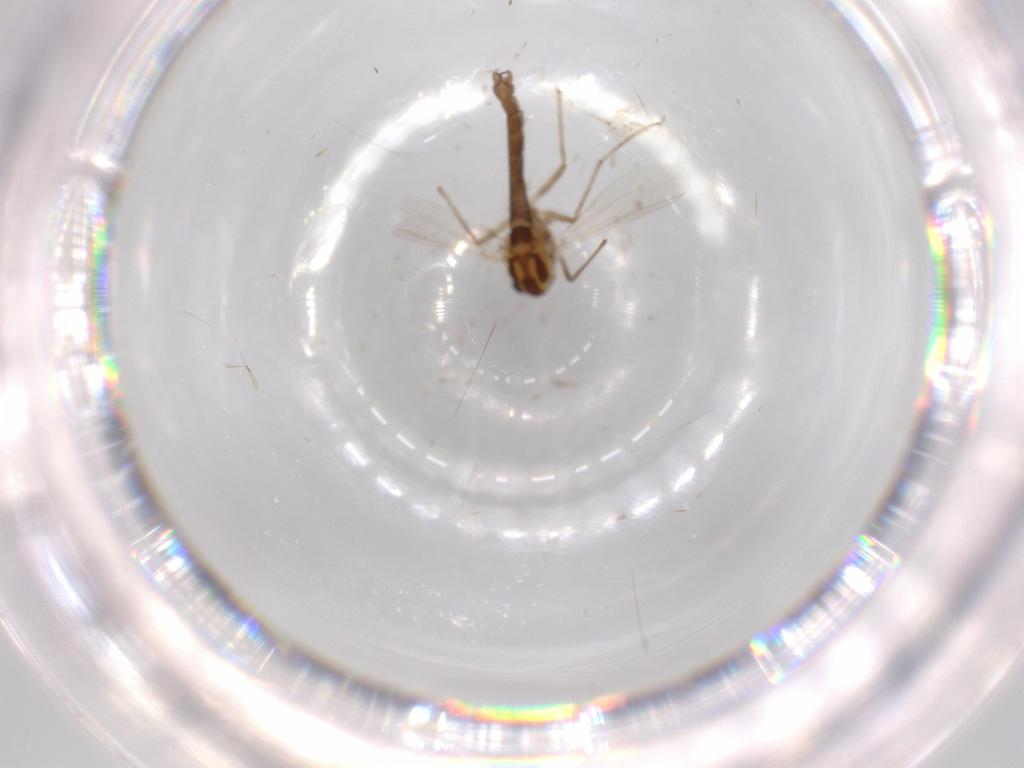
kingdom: Animalia
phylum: Arthropoda
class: Insecta
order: Diptera
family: Chironomidae
